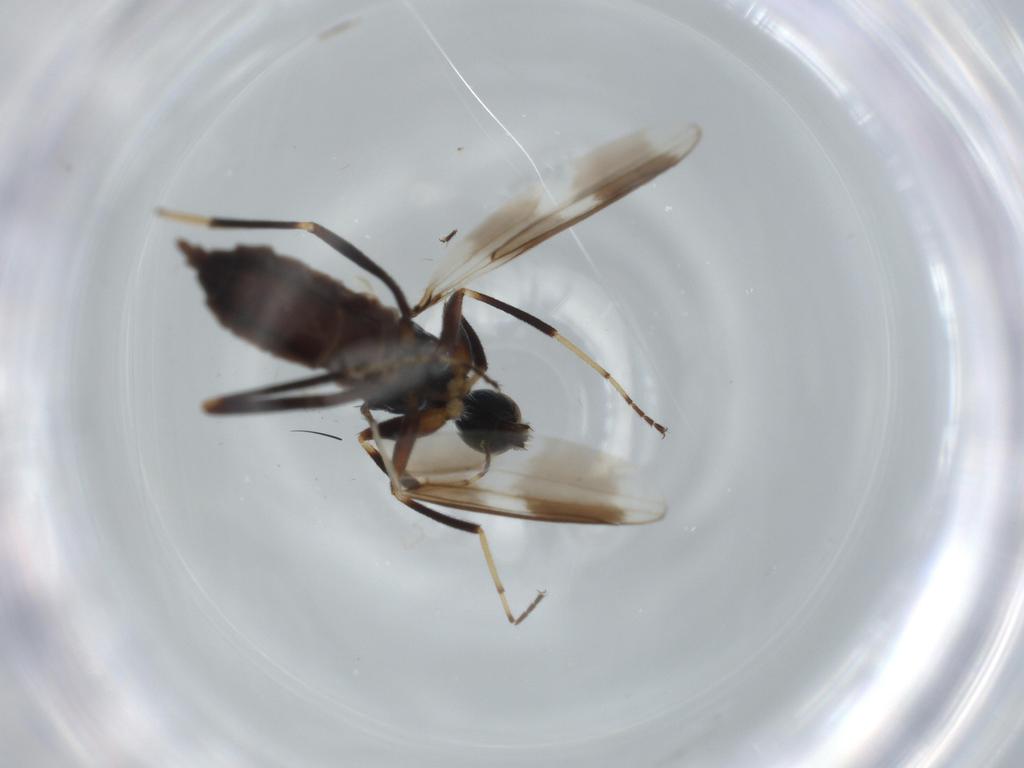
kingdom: Animalia
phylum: Arthropoda
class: Insecta
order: Diptera
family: Hybotidae
